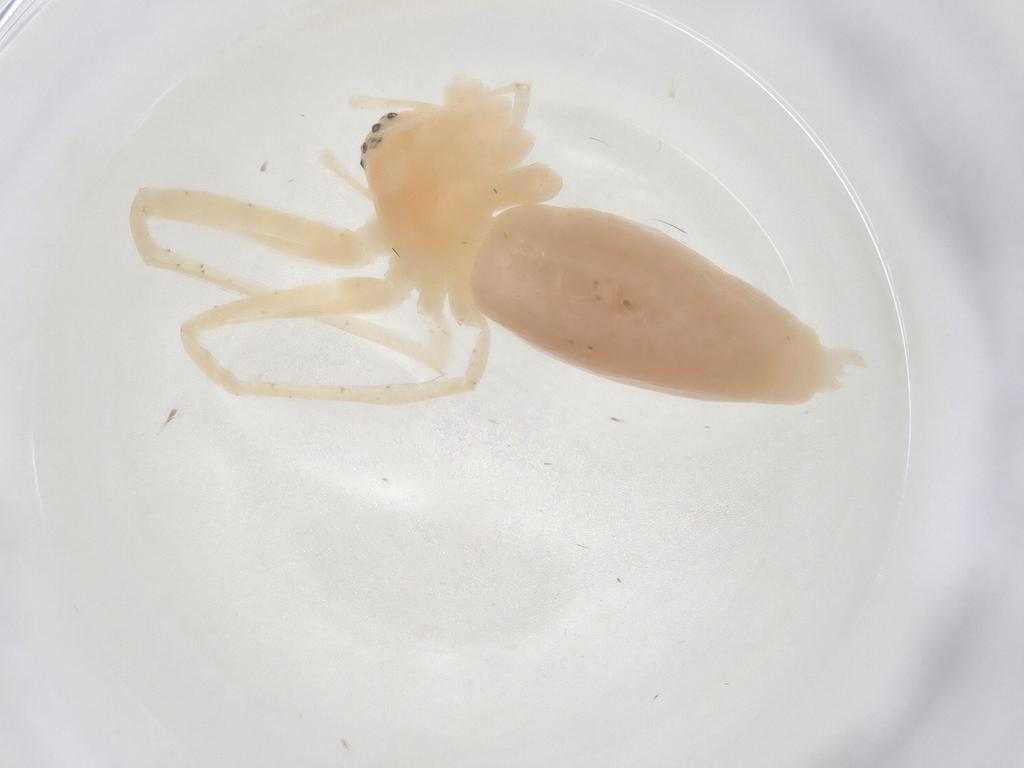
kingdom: Animalia
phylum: Arthropoda
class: Arachnida
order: Araneae
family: Anyphaenidae
